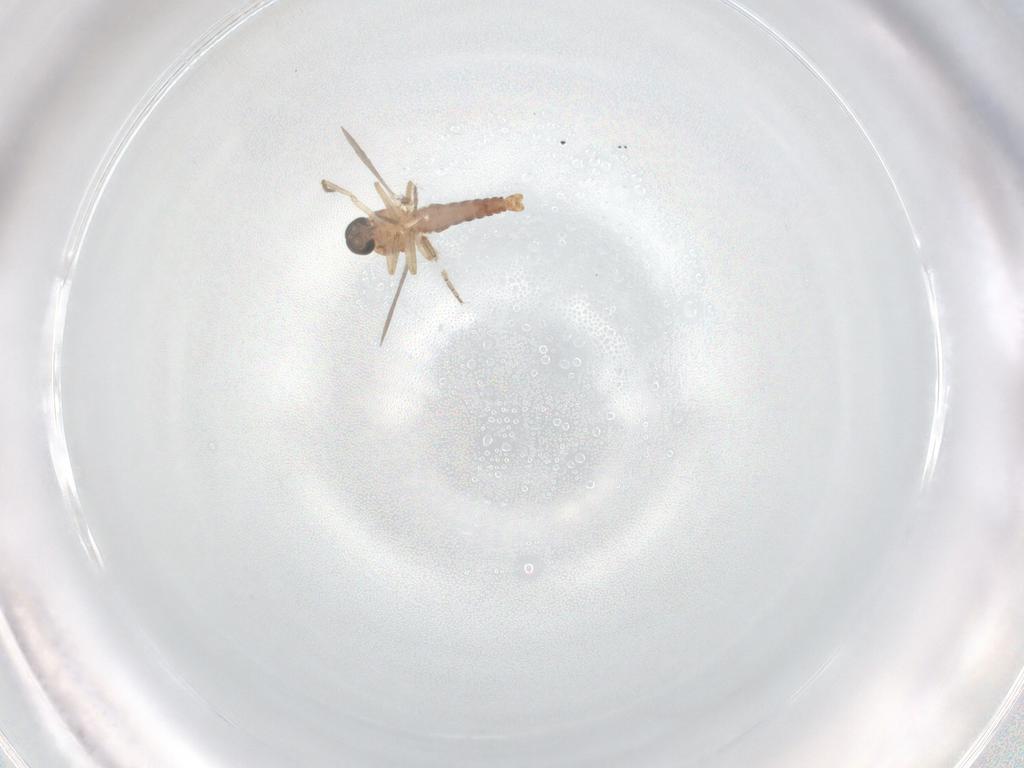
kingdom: Animalia
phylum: Arthropoda
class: Insecta
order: Diptera
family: Ceratopogonidae
